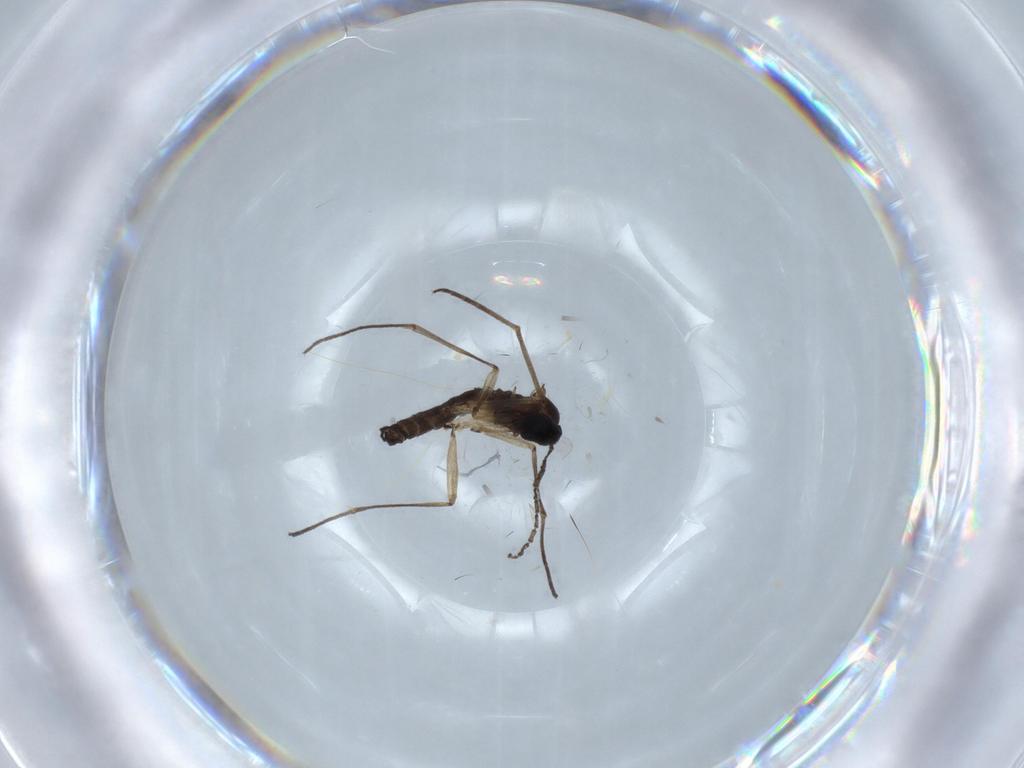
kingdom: Animalia
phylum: Arthropoda
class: Insecta
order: Diptera
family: Sciaridae
